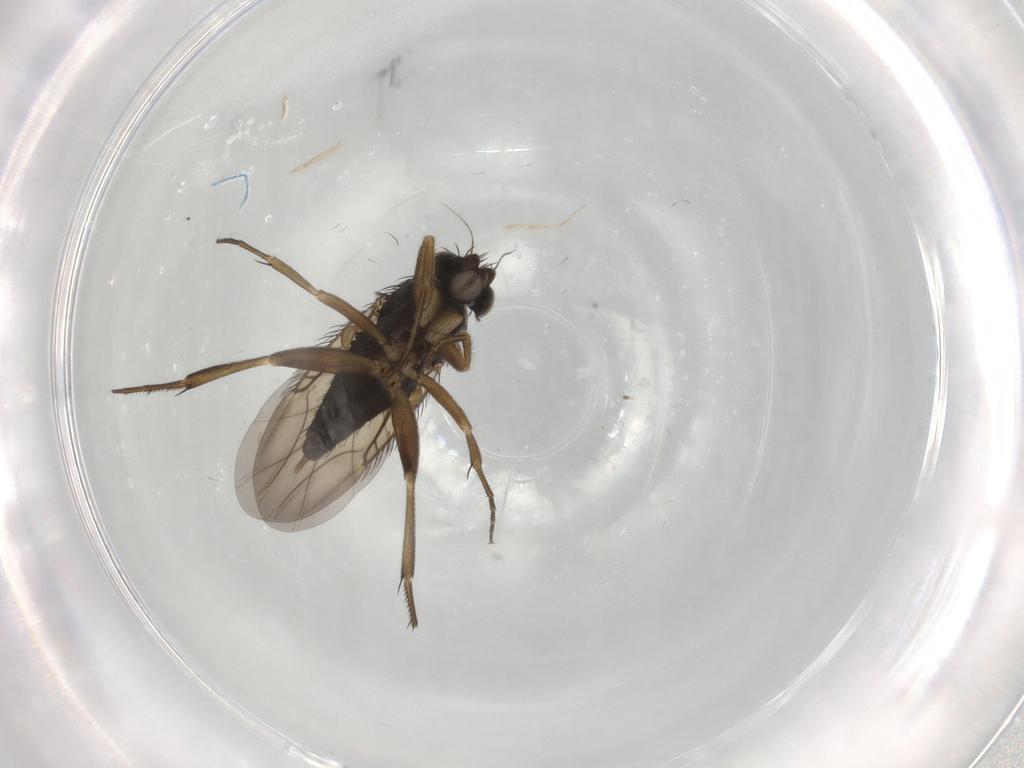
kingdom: Animalia
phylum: Arthropoda
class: Insecta
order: Diptera
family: Phoridae
